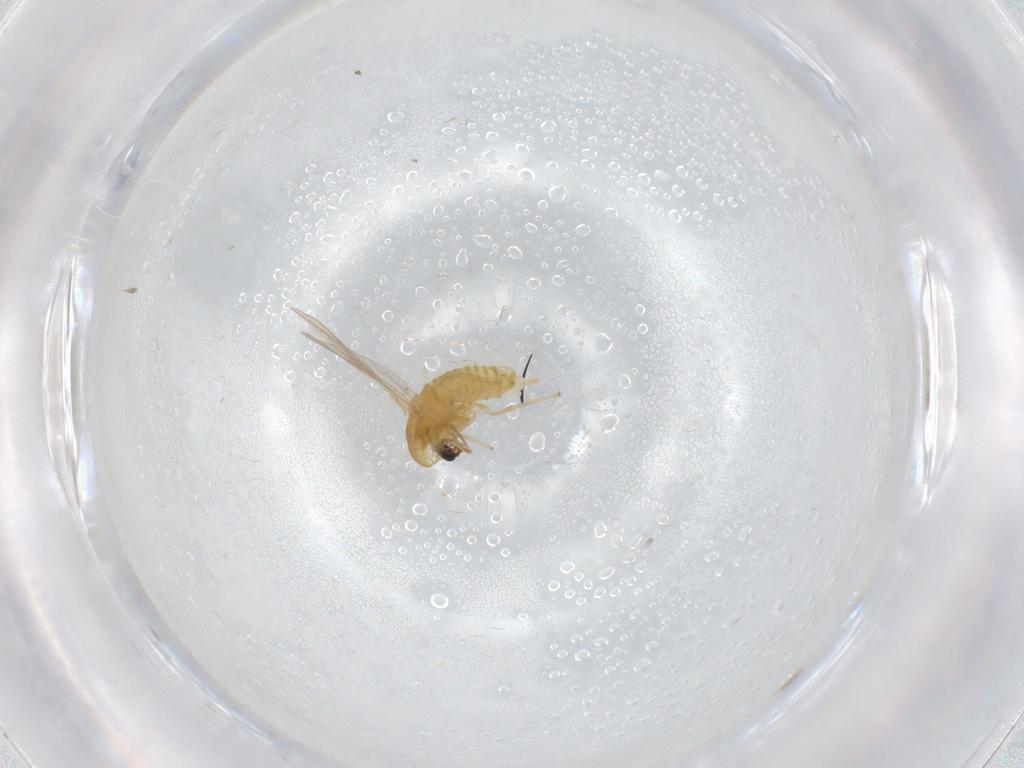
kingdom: Animalia
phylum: Arthropoda
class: Insecta
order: Diptera
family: Chironomidae
